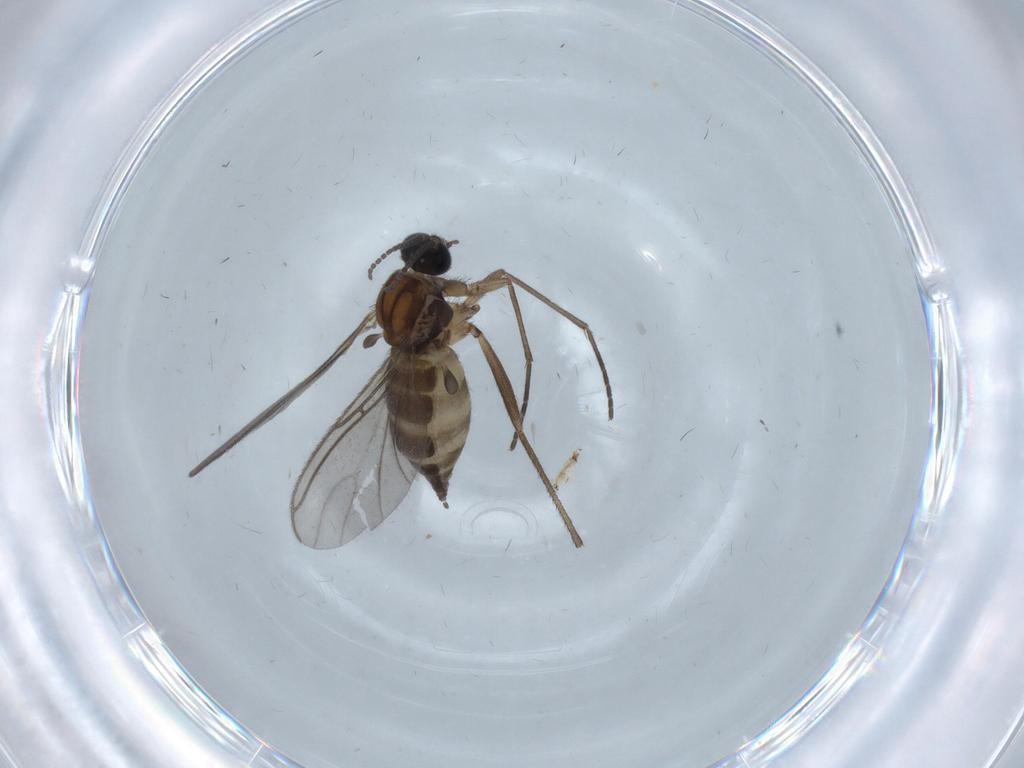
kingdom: Animalia
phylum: Arthropoda
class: Insecta
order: Diptera
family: Sciaridae
